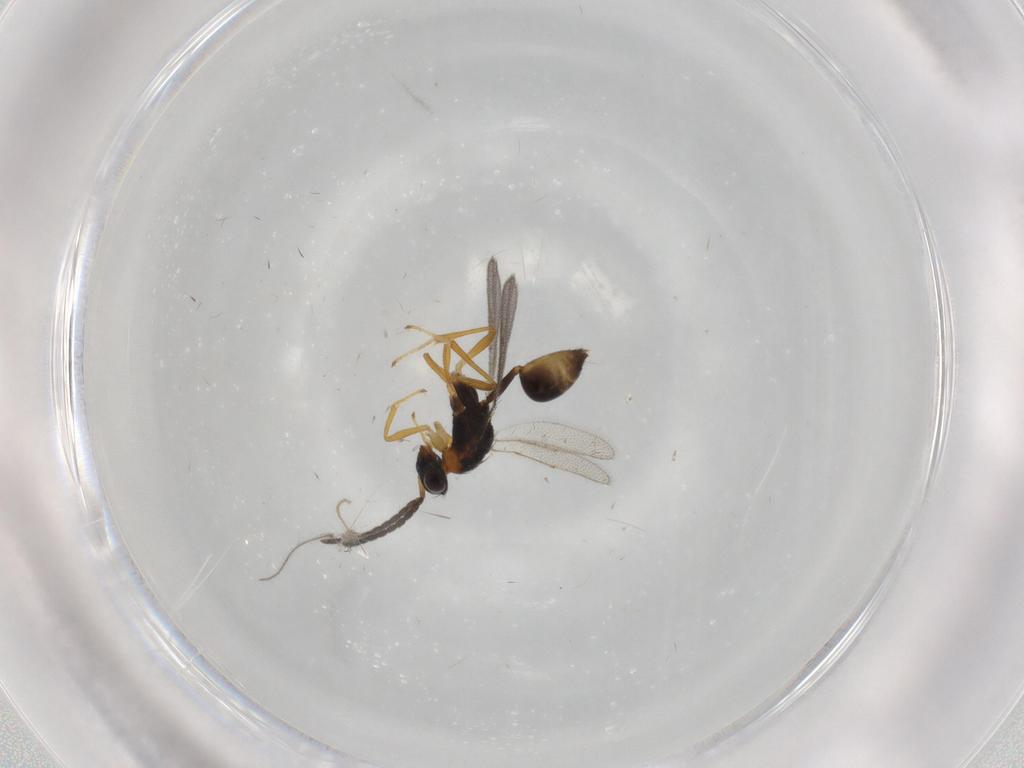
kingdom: Animalia
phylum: Arthropoda
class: Insecta
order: Hymenoptera
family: Diparidae
